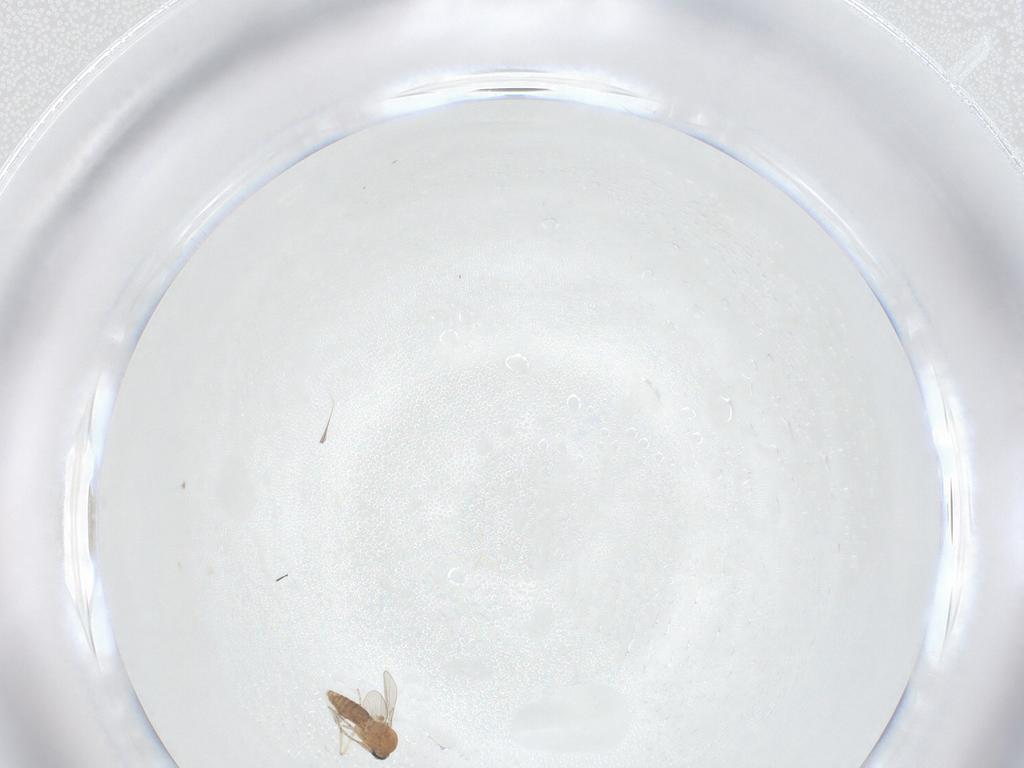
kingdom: Animalia
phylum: Arthropoda
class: Insecta
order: Diptera
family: Ceratopogonidae
